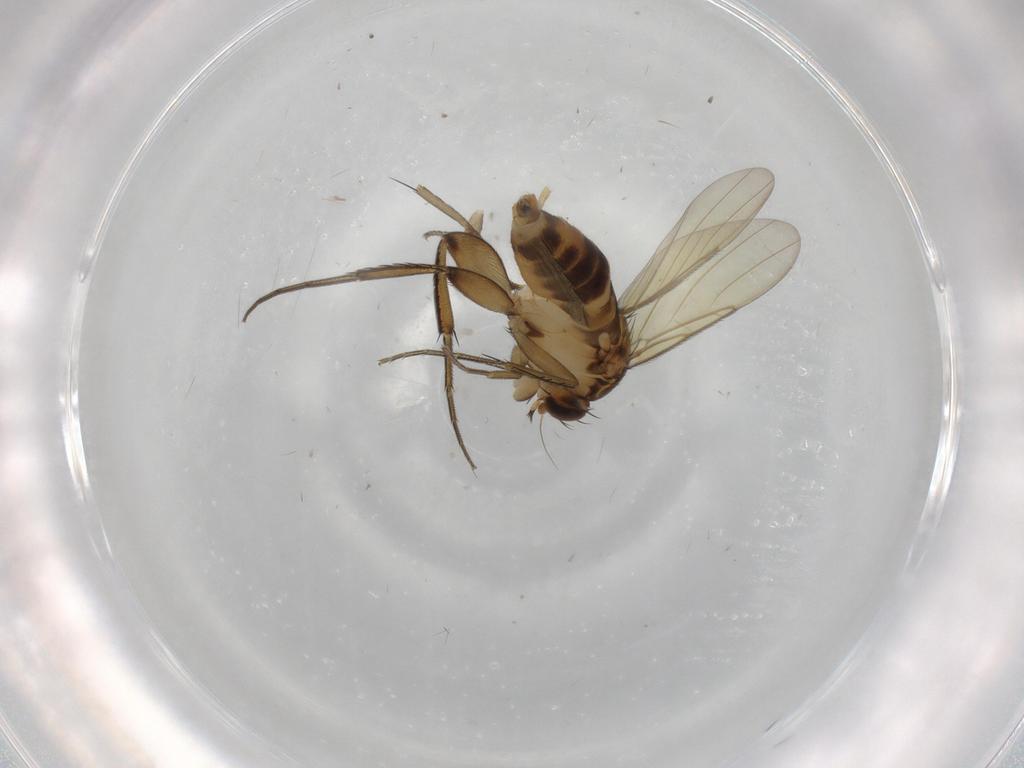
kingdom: Animalia
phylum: Arthropoda
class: Insecta
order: Diptera
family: Phoridae
